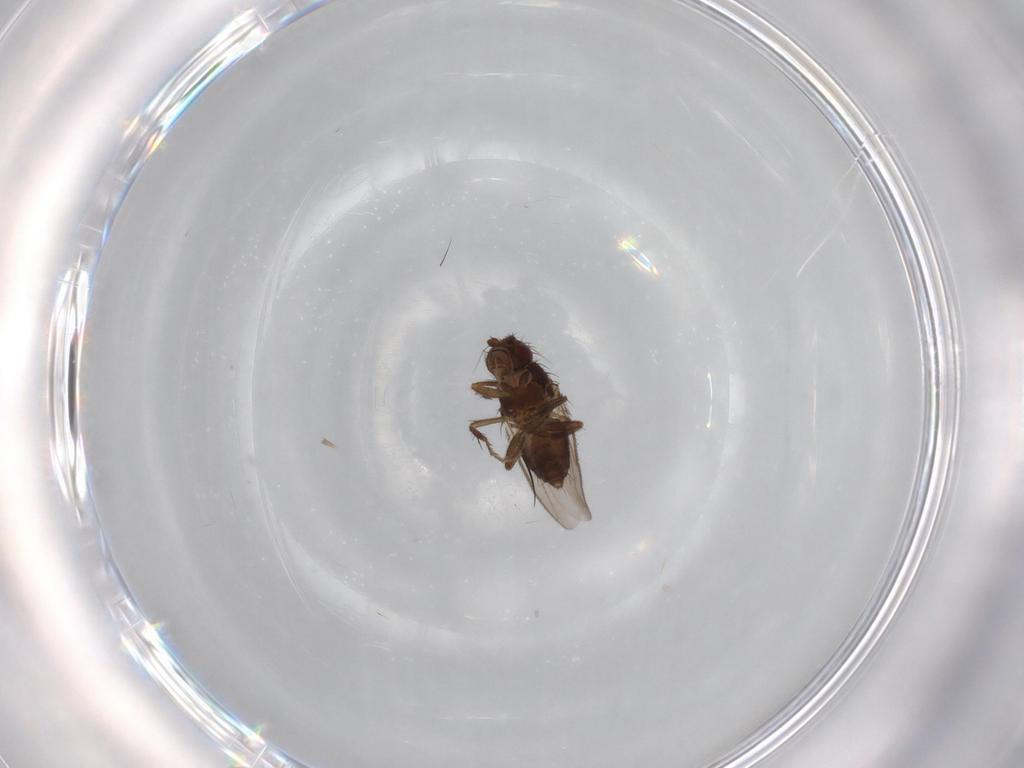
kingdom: Animalia
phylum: Arthropoda
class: Insecta
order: Diptera
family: Sphaeroceridae
